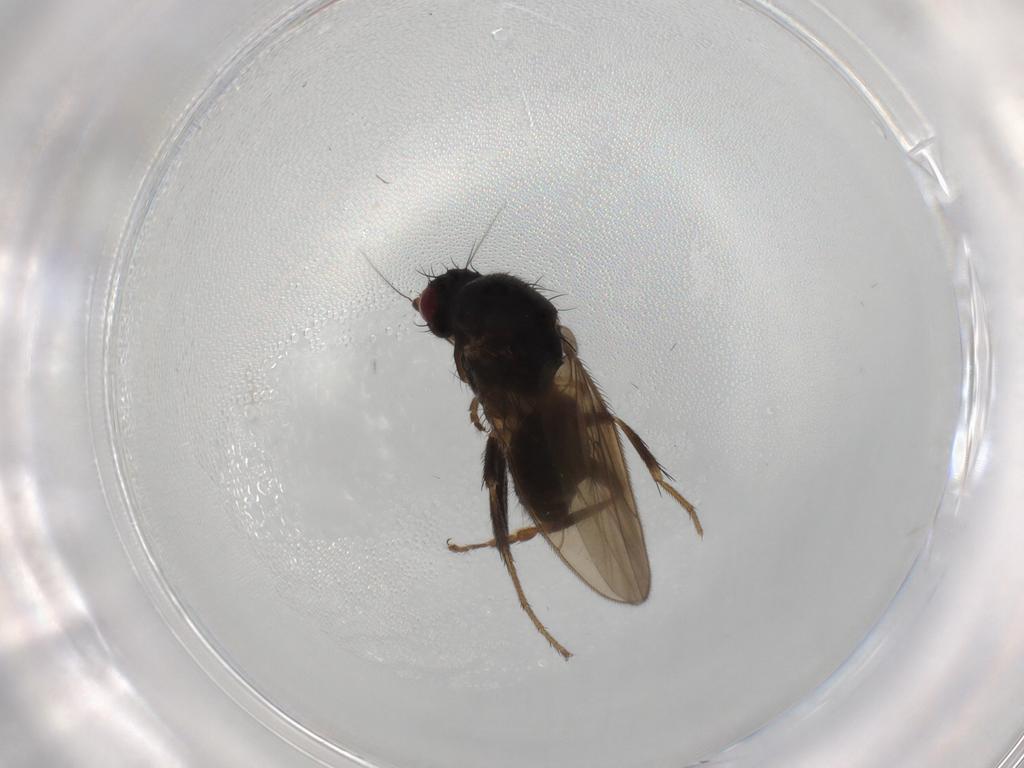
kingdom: Animalia
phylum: Arthropoda
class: Insecta
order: Diptera
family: Sphaeroceridae
